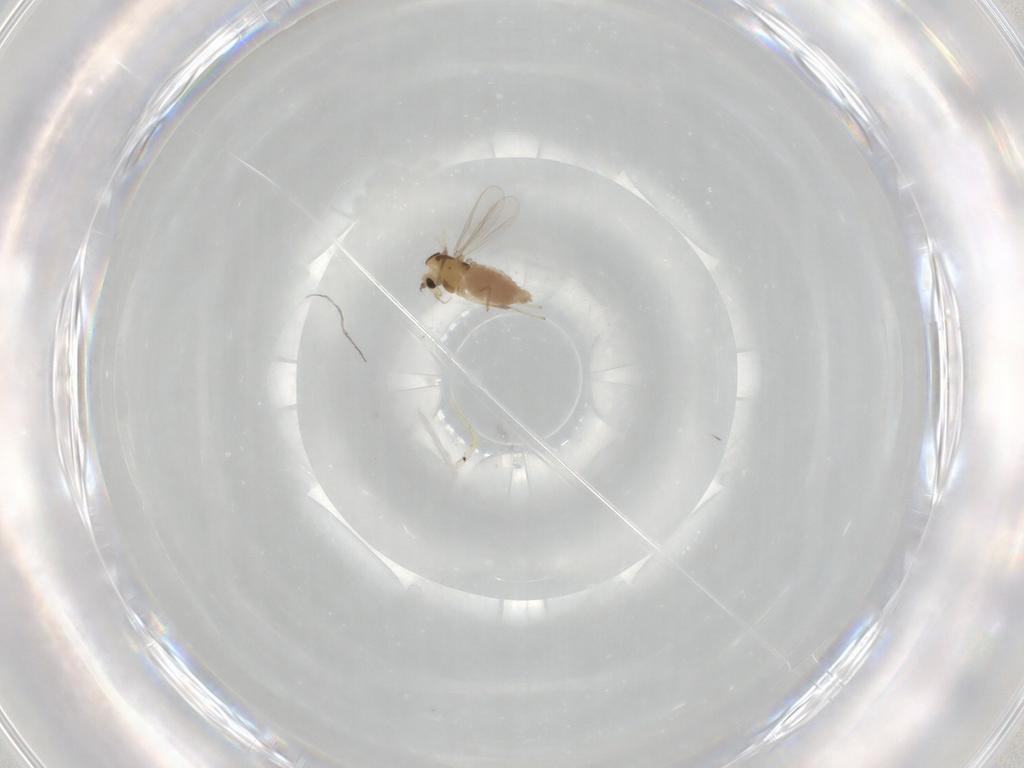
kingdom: Animalia
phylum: Arthropoda
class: Insecta
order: Diptera
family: Chironomidae
